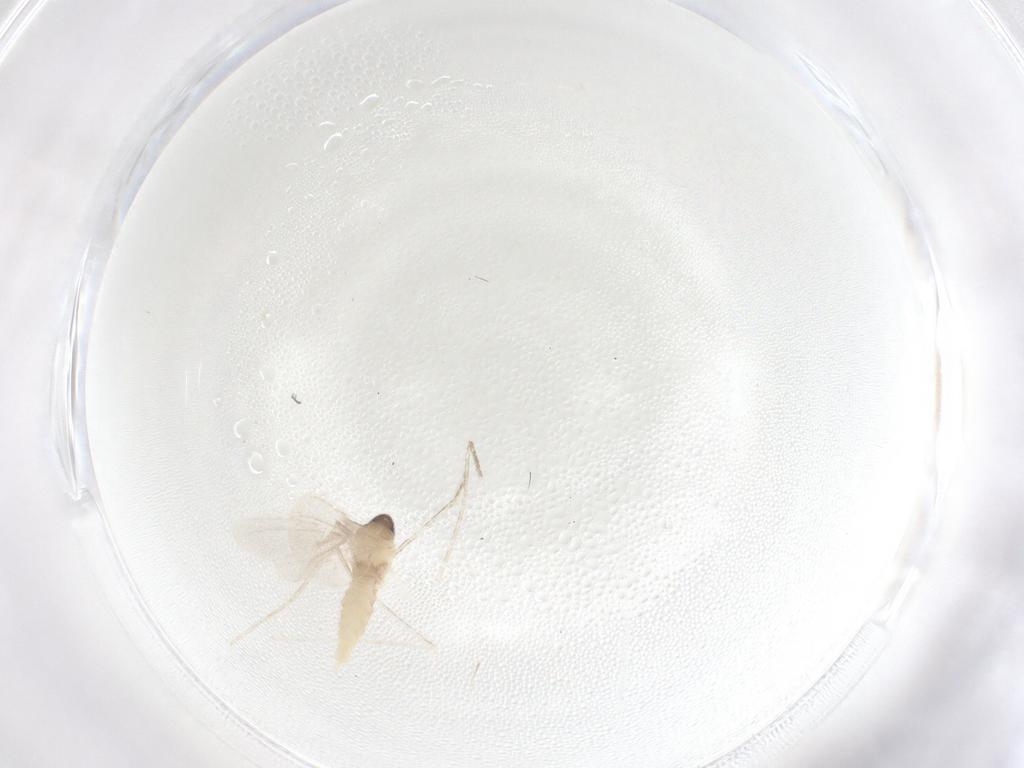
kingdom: Animalia
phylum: Arthropoda
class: Insecta
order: Diptera
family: Cecidomyiidae
